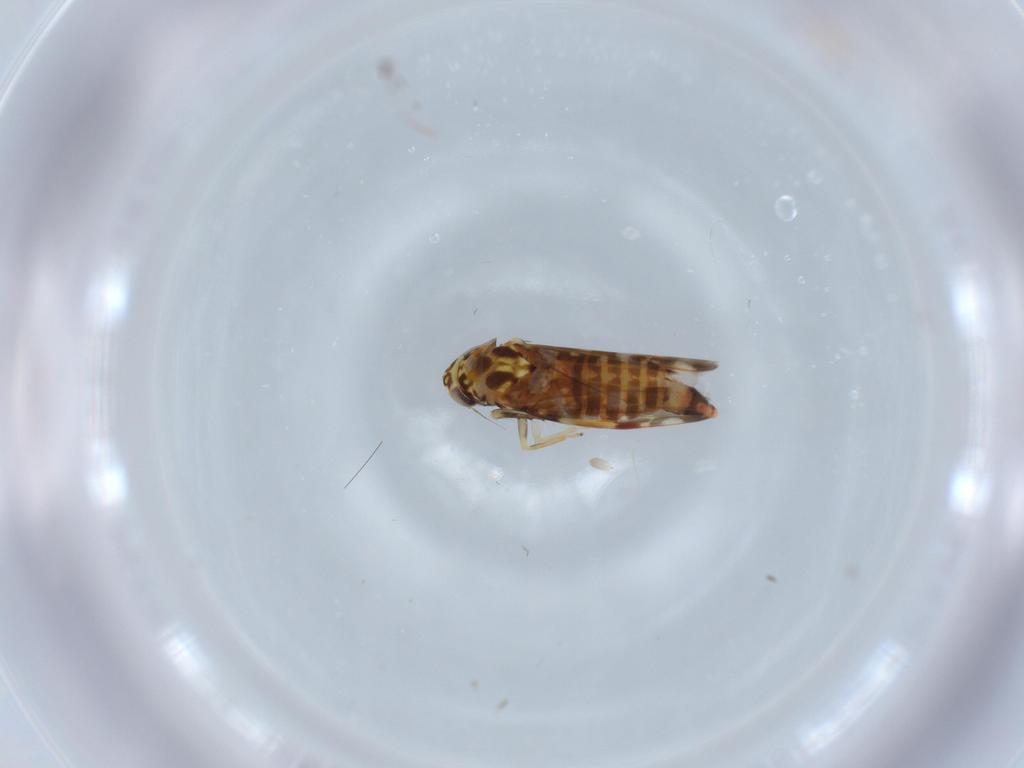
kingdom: Animalia
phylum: Arthropoda
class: Insecta
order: Hemiptera
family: Cicadellidae
